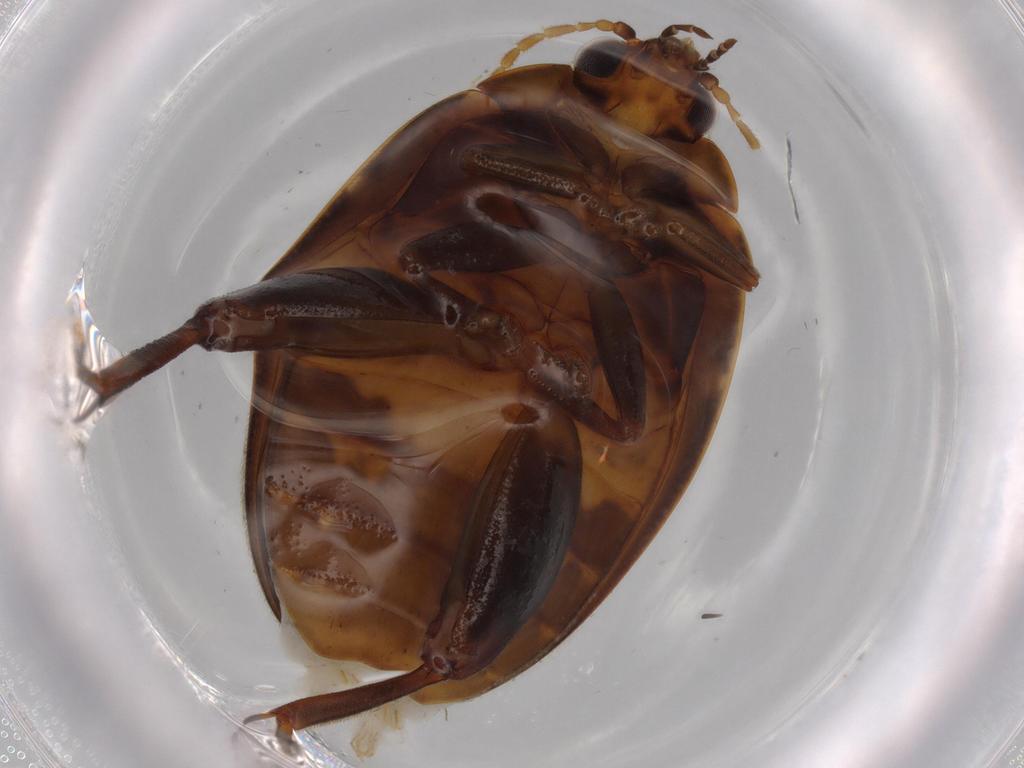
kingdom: Animalia
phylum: Arthropoda
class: Insecta
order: Coleoptera
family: Scirtidae
